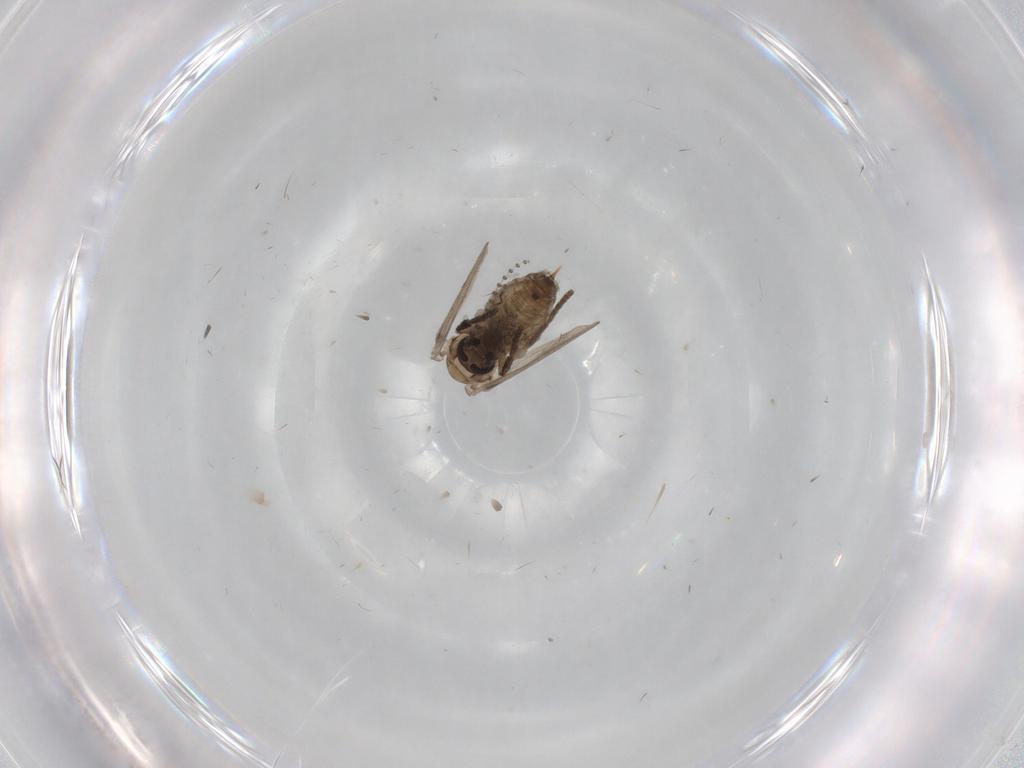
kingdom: Animalia
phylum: Arthropoda
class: Insecta
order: Diptera
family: Psychodidae
